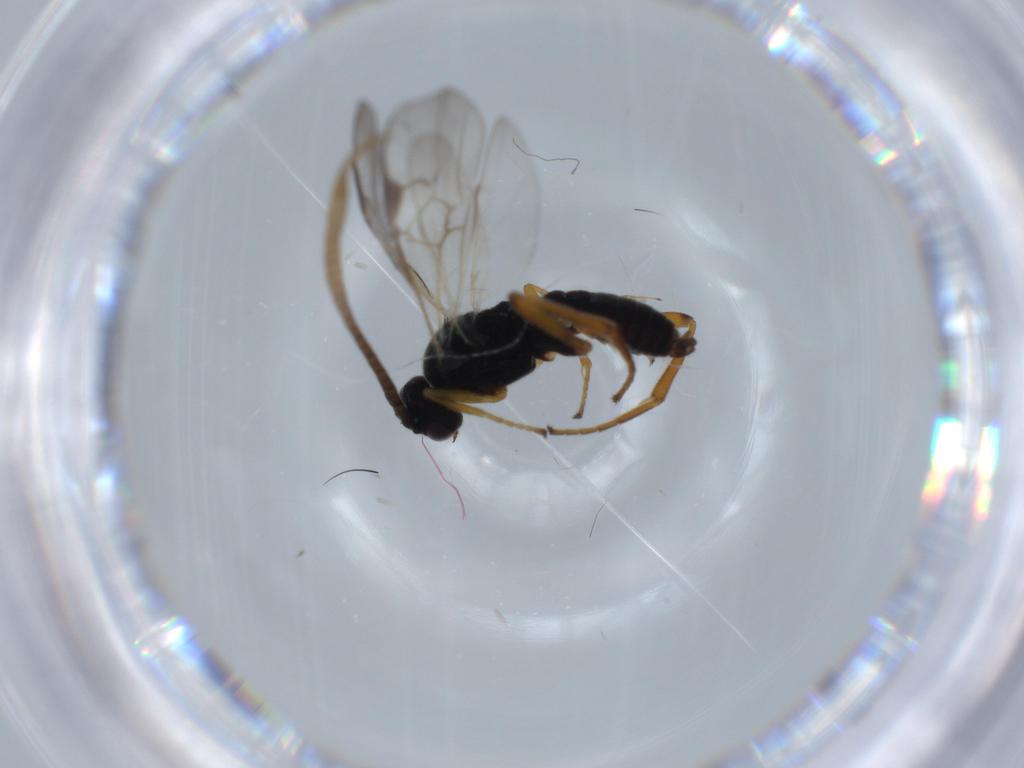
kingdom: Animalia
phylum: Arthropoda
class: Insecta
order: Hymenoptera
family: Braconidae
